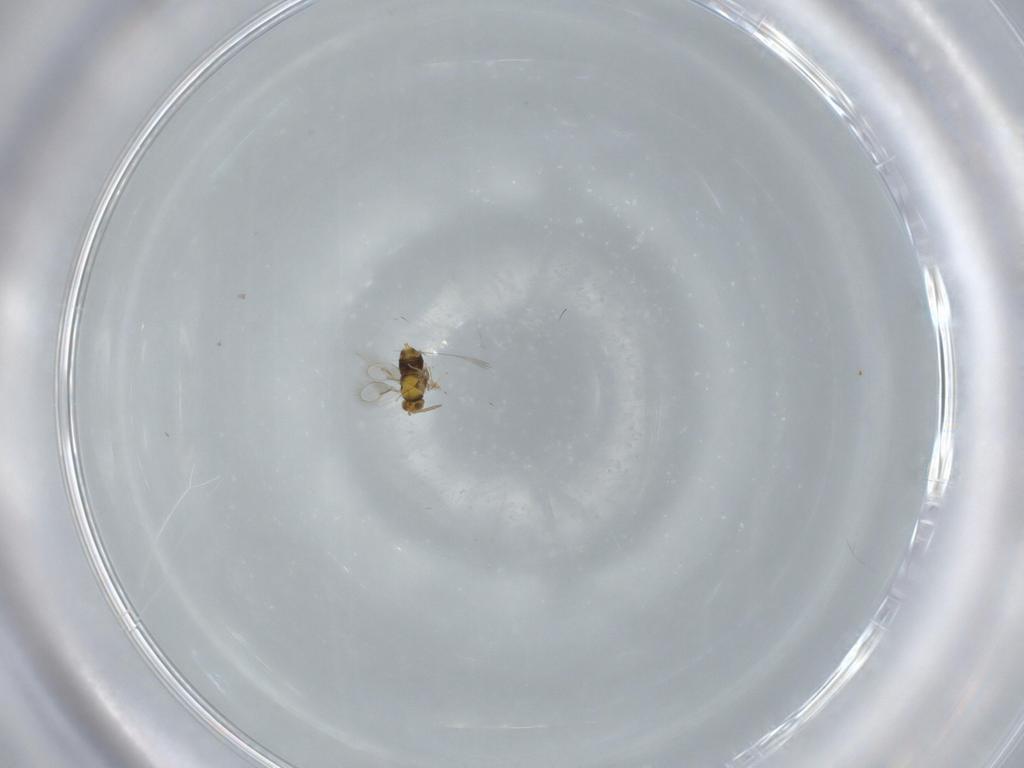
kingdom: Animalia
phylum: Arthropoda
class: Insecta
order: Hymenoptera
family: Aphelinidae
